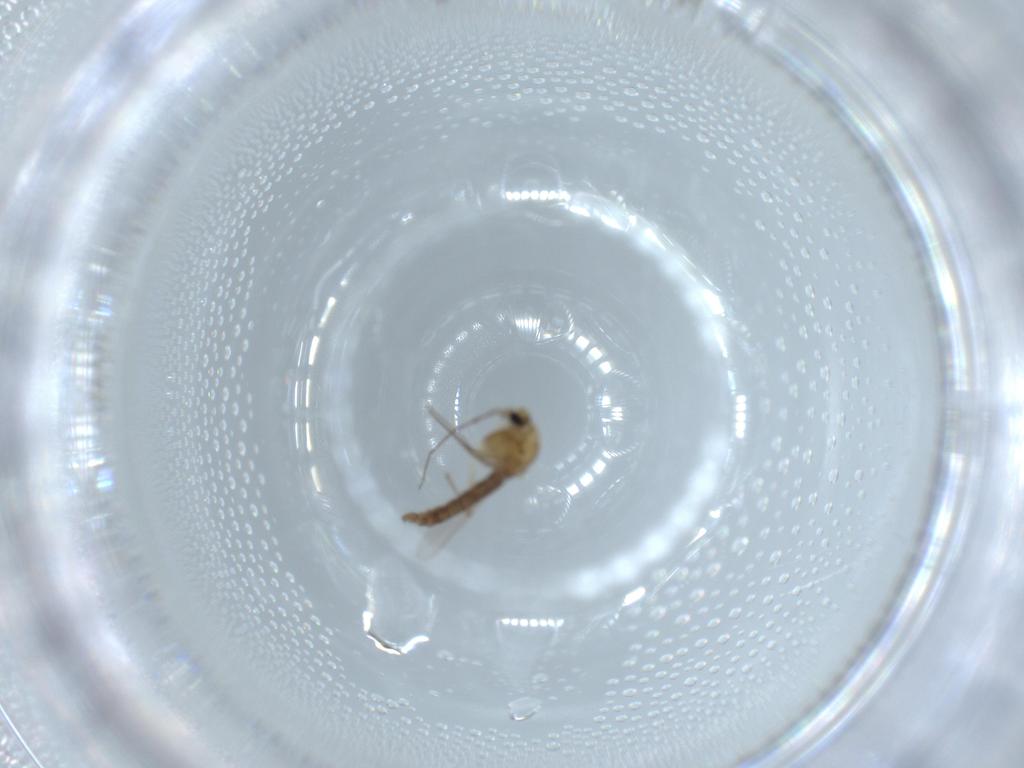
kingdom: Animalia
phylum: Arthropoda
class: Insecta
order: Diptera
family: Chironomidae
